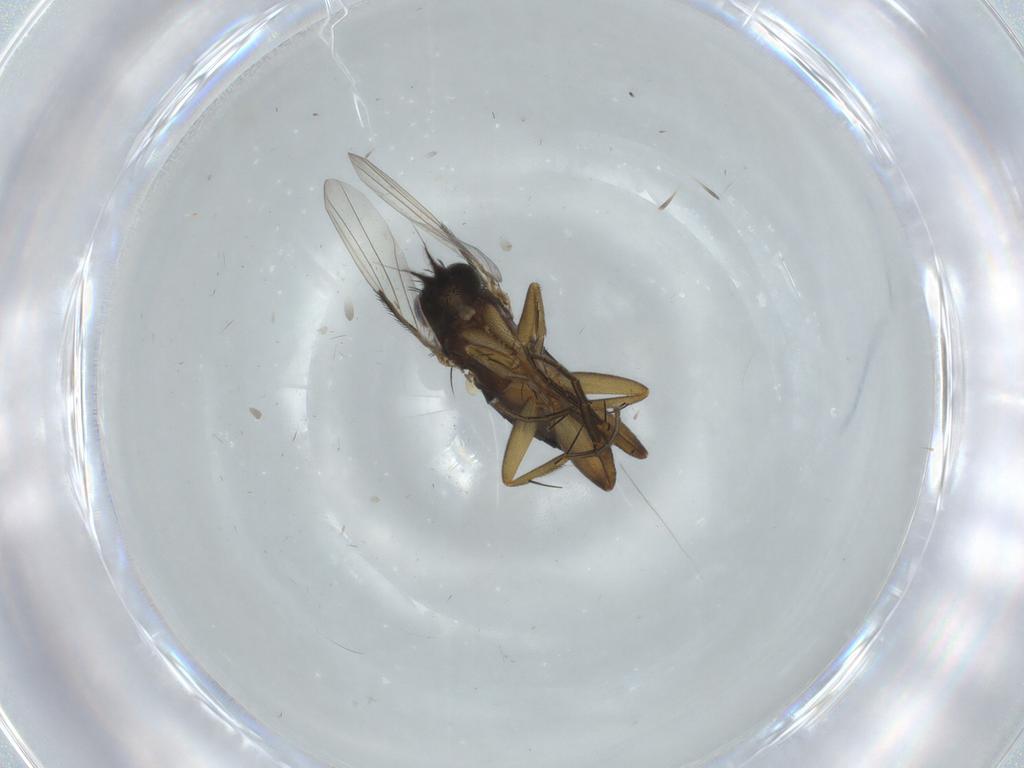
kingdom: Animalia
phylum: Arthropoda
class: Insecta
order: Diptera
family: Phoridae
